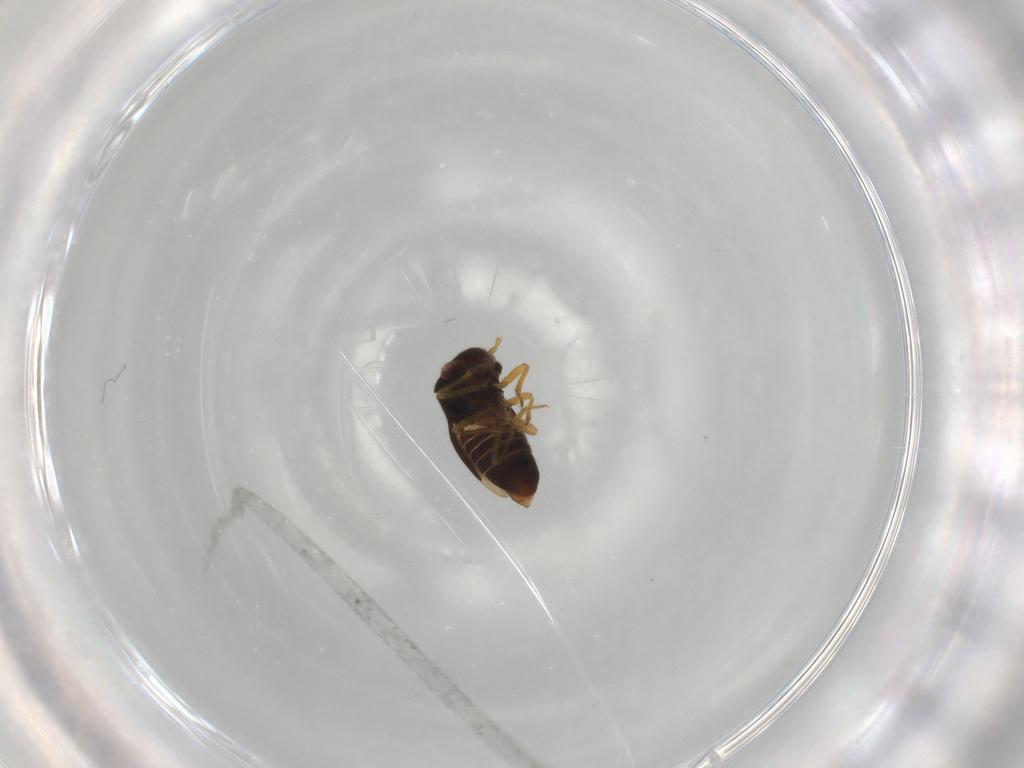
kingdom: Animalia
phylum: Arthropoda
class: Insecta
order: Hemiptera
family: Schizopteridae
